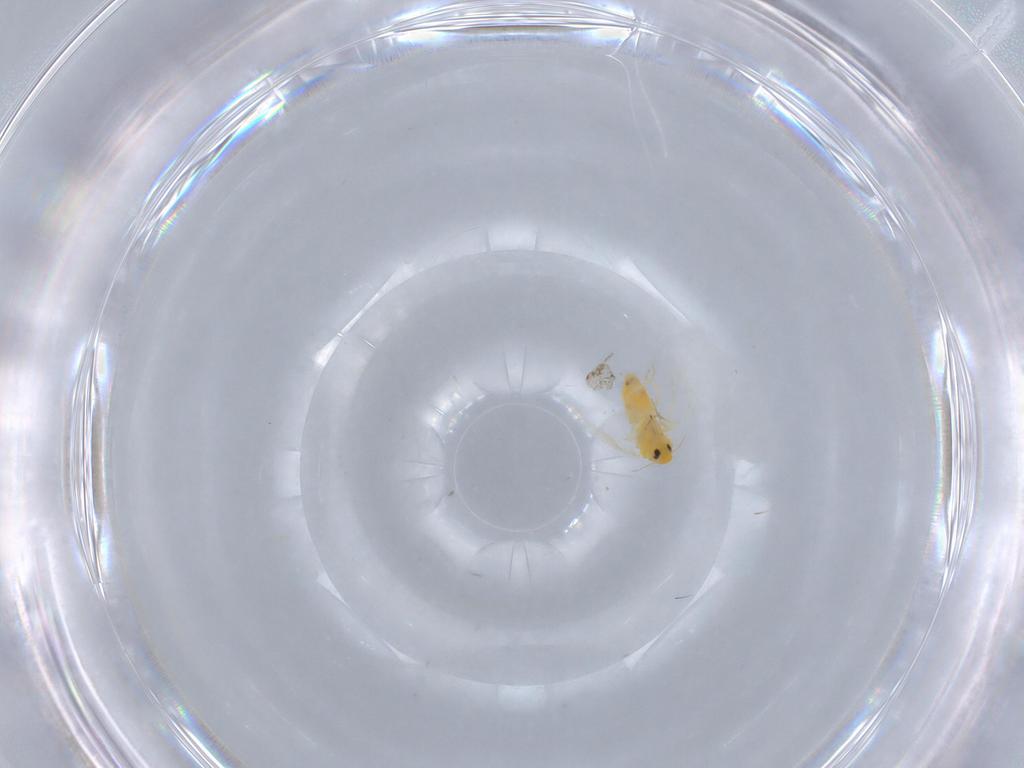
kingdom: Animalia
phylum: Arthropoda
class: Insecta
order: Hemiptera
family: Aleyrodidae
